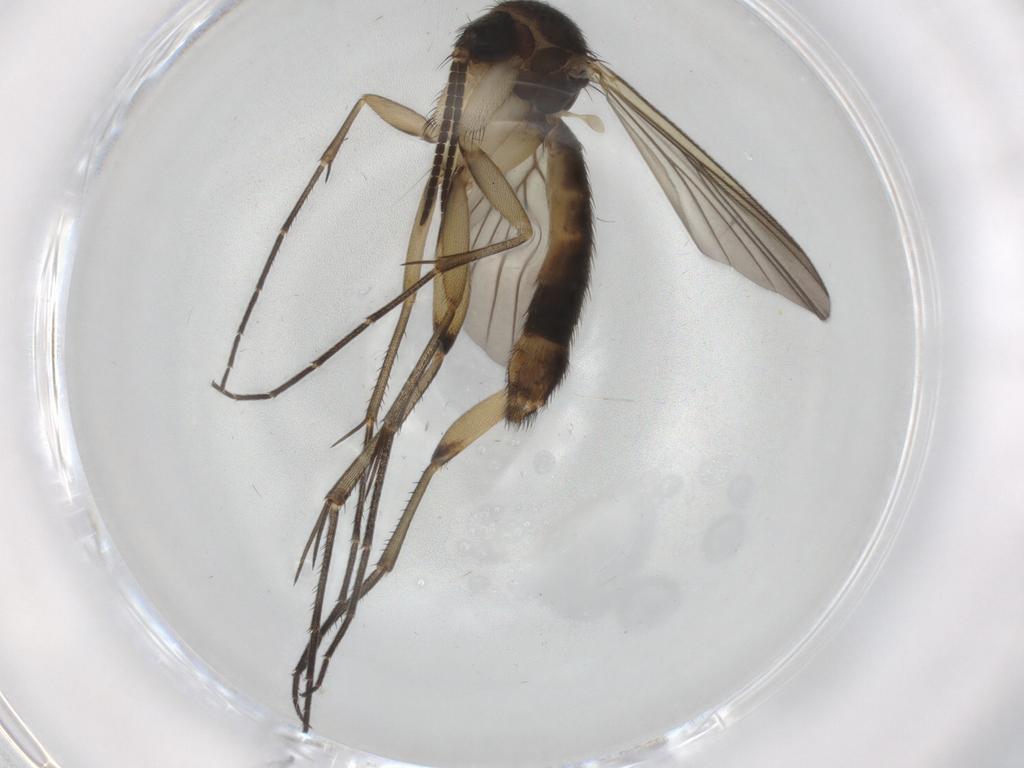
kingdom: Animalia
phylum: Arthropoda
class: Insecta
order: Diptera
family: Mycetophilidae
